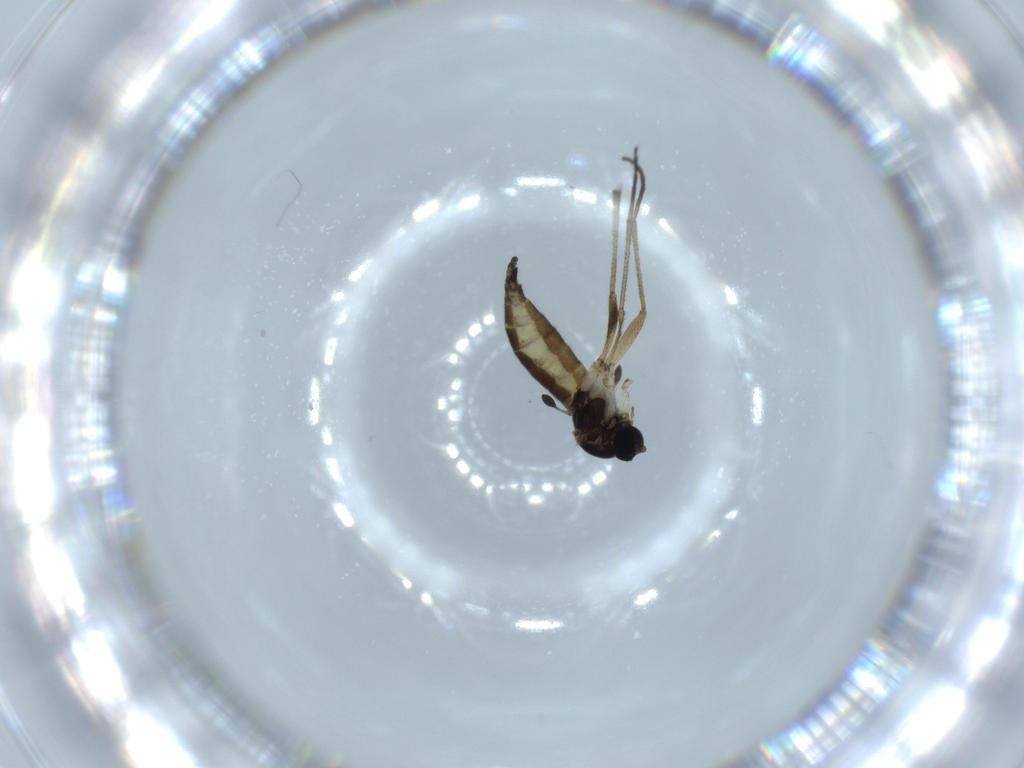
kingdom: Animalia
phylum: Arthropoda
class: Insecta
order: Diptera
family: Sciaridae
